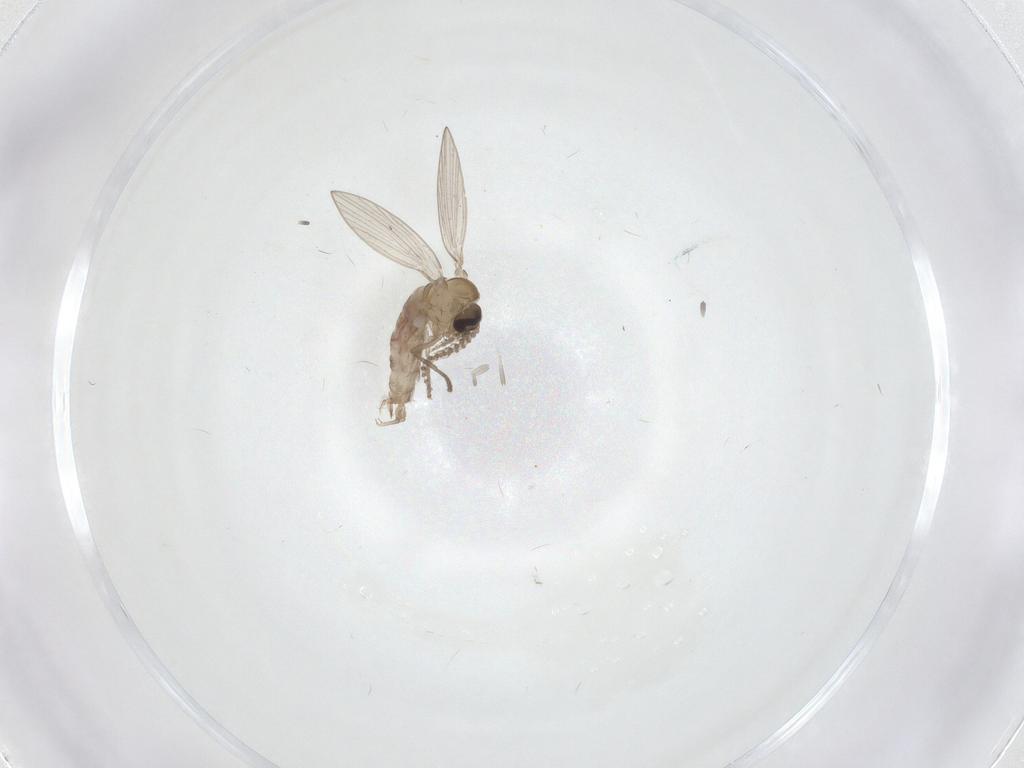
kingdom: Animalia
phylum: Arthropoda
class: Insecta
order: Diptera
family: Psychodidae
